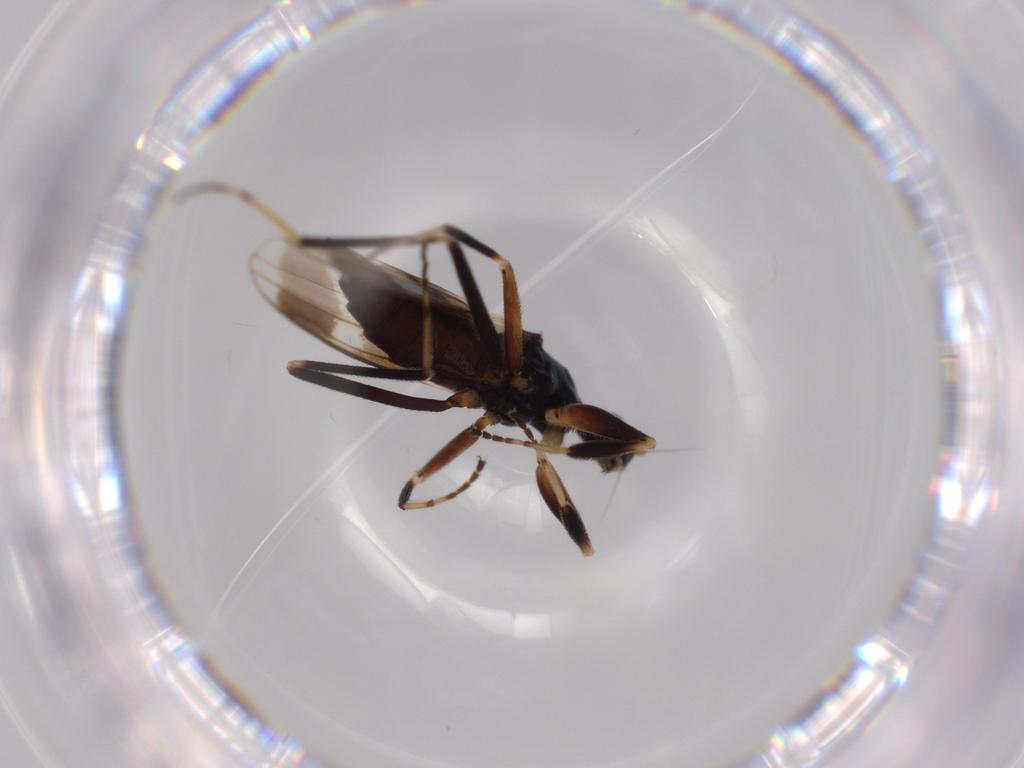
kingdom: Animalia
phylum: Arthropoda
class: Insecta
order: Diptera
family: Hybotidae
